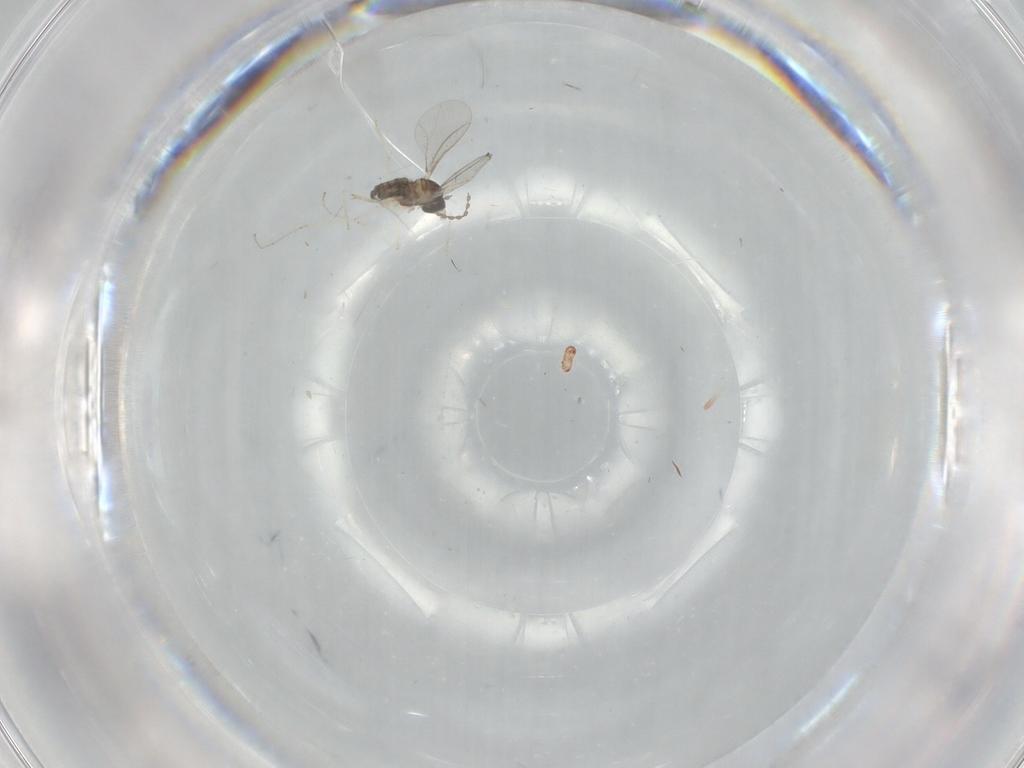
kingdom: Animalia
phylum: Arthropoda
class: Insecta
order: Diptera
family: Cecidomyiidae
